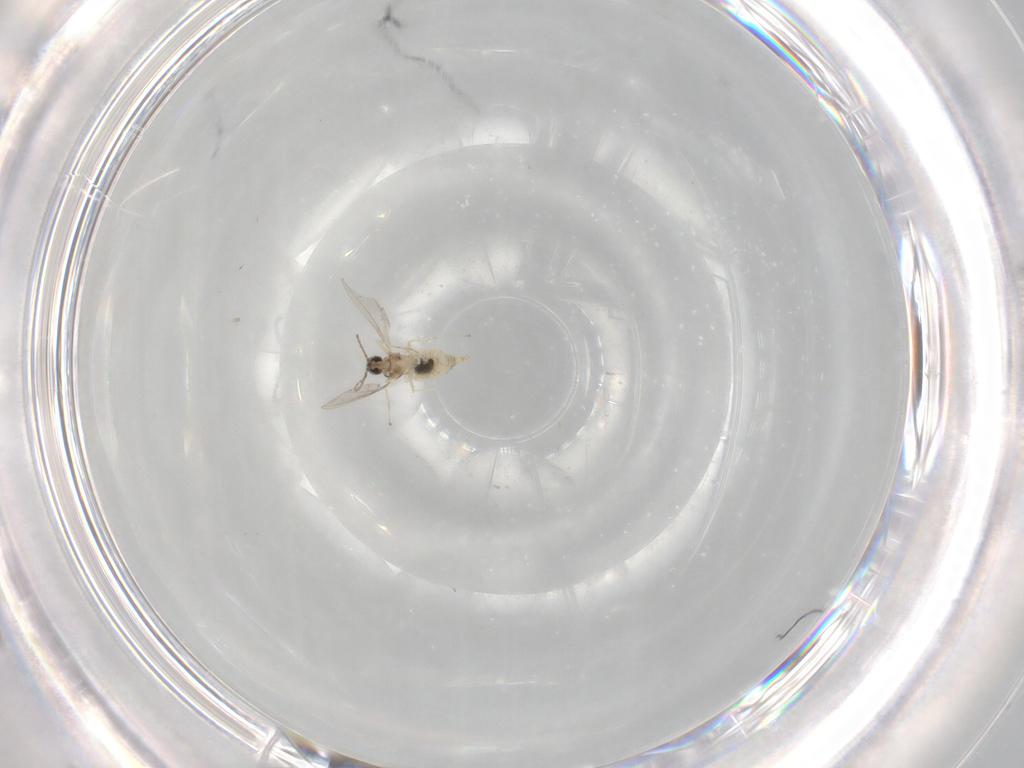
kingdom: Animalia
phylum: Arthropoda
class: Insecta
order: Diptera
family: Cecidomyiidae
